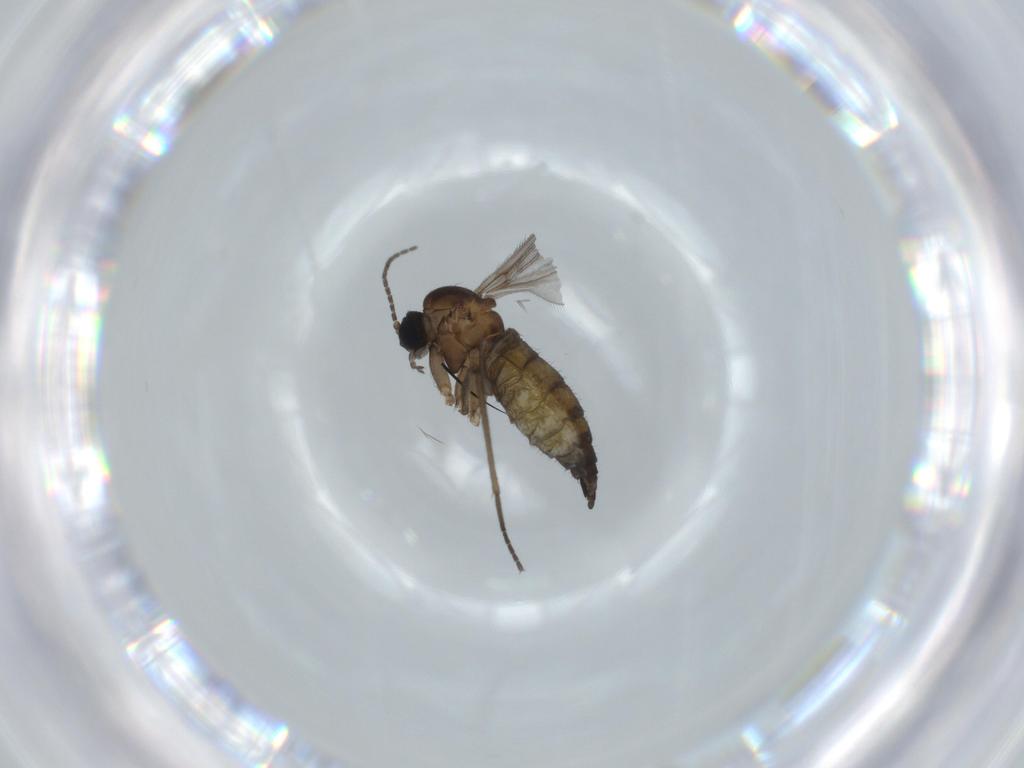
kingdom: Animalia
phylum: Arthropoda
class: Insecta
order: Diptera
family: Sciaridae
